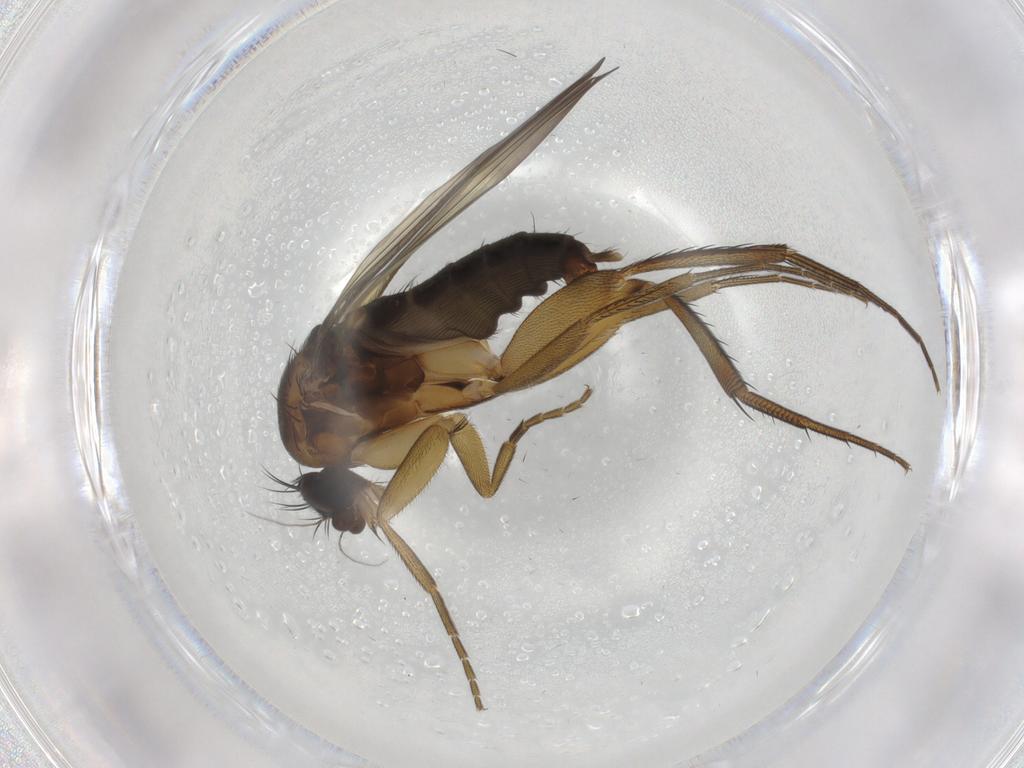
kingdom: Animalia
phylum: Arthropoda
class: Insecta
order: Diptera
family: Phoridae
